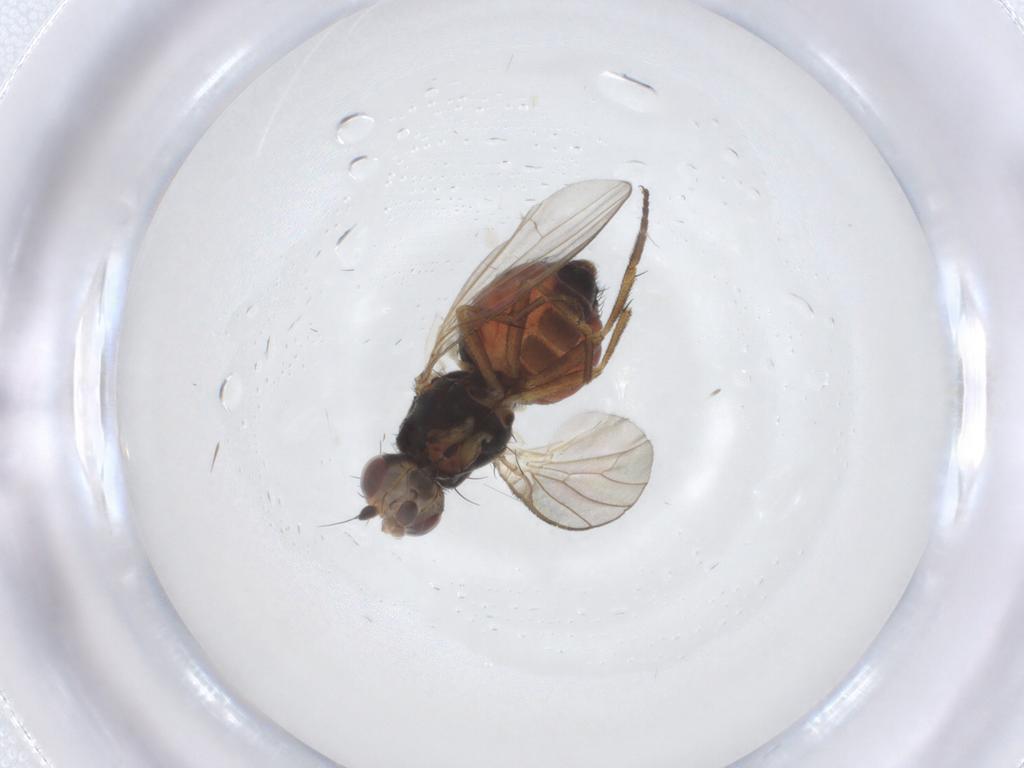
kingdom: Animalia
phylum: Arthropoda
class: Insecta
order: Diptera
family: Heleomyzidae
